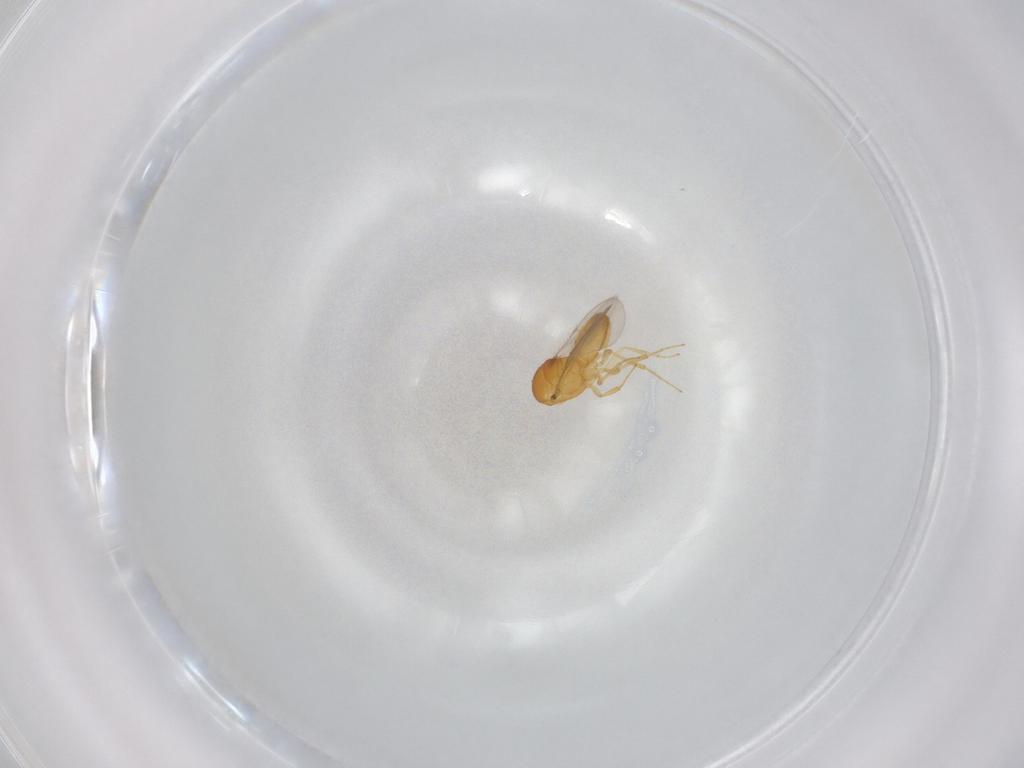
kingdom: Animalia
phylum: Arthropoda
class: Insecta
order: Hymenoptera
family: Scelionidae
